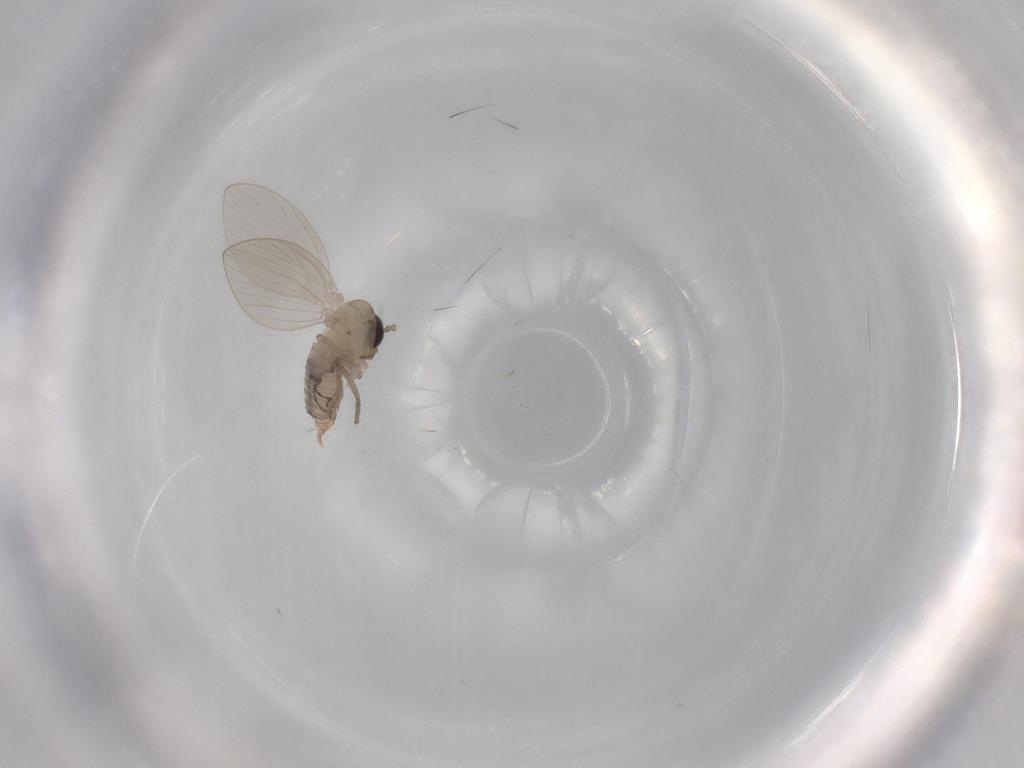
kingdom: Animalia
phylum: Arthropoda
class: Insecta
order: Diptera
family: Psychodidae
